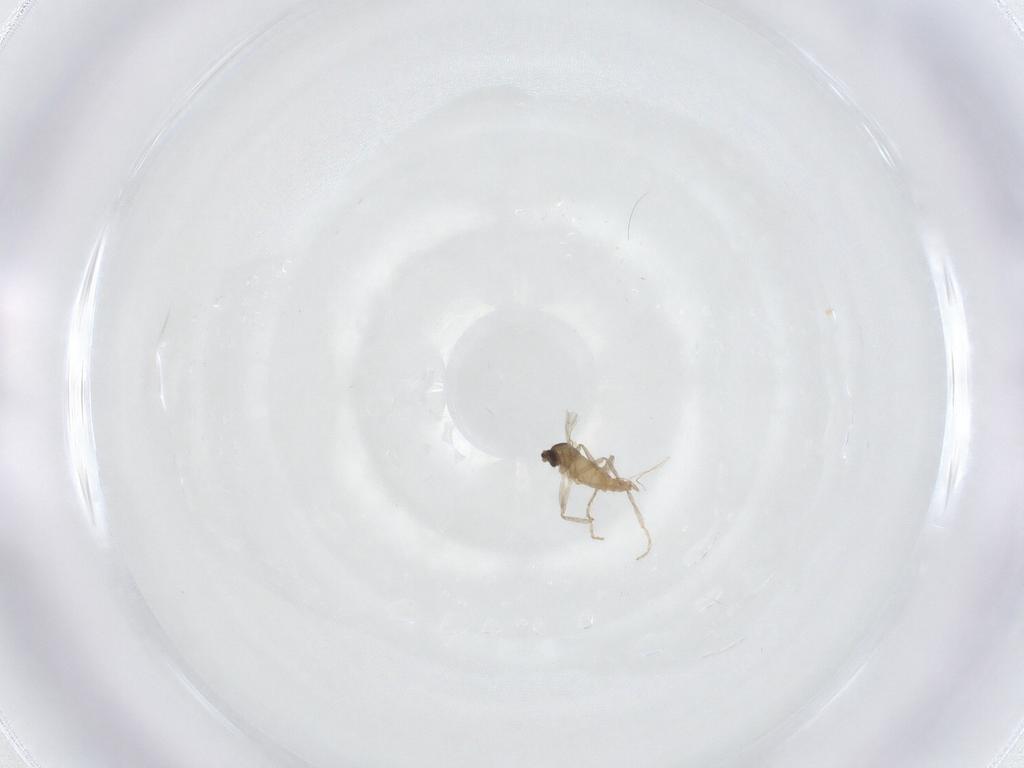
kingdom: Animalia
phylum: Arthropoda
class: Insecta
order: Diptera
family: Cecidomyiidae
